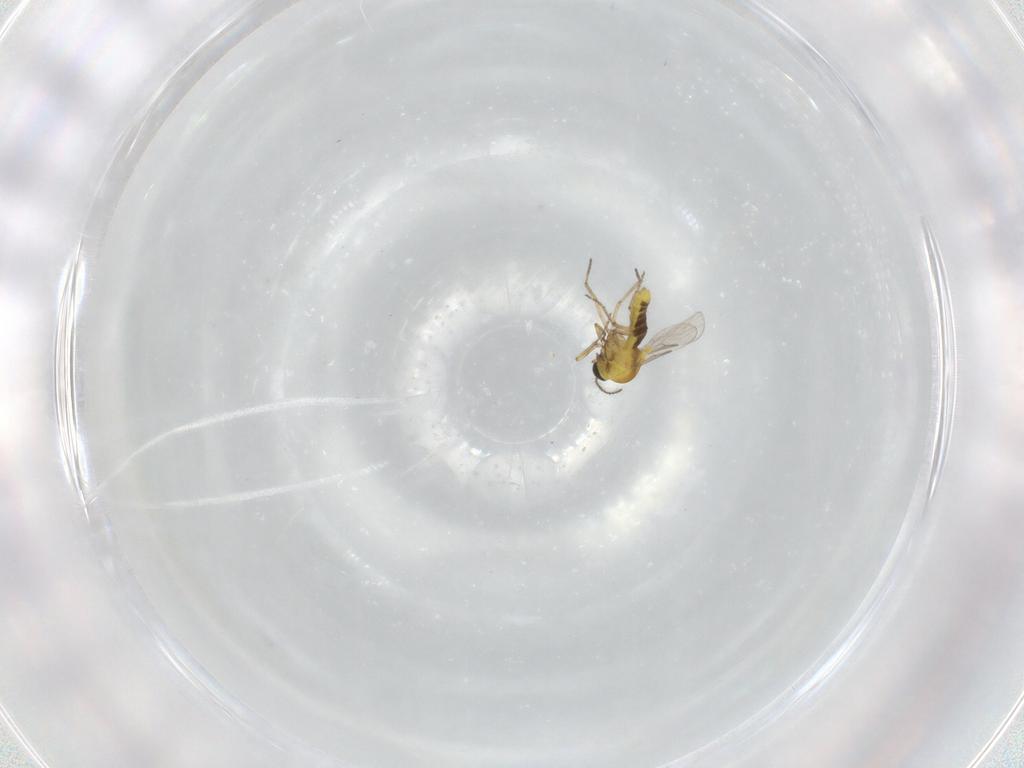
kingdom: Animalia
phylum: Arthropoda
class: Insecta
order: Diptera
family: Ceratopogonidae
